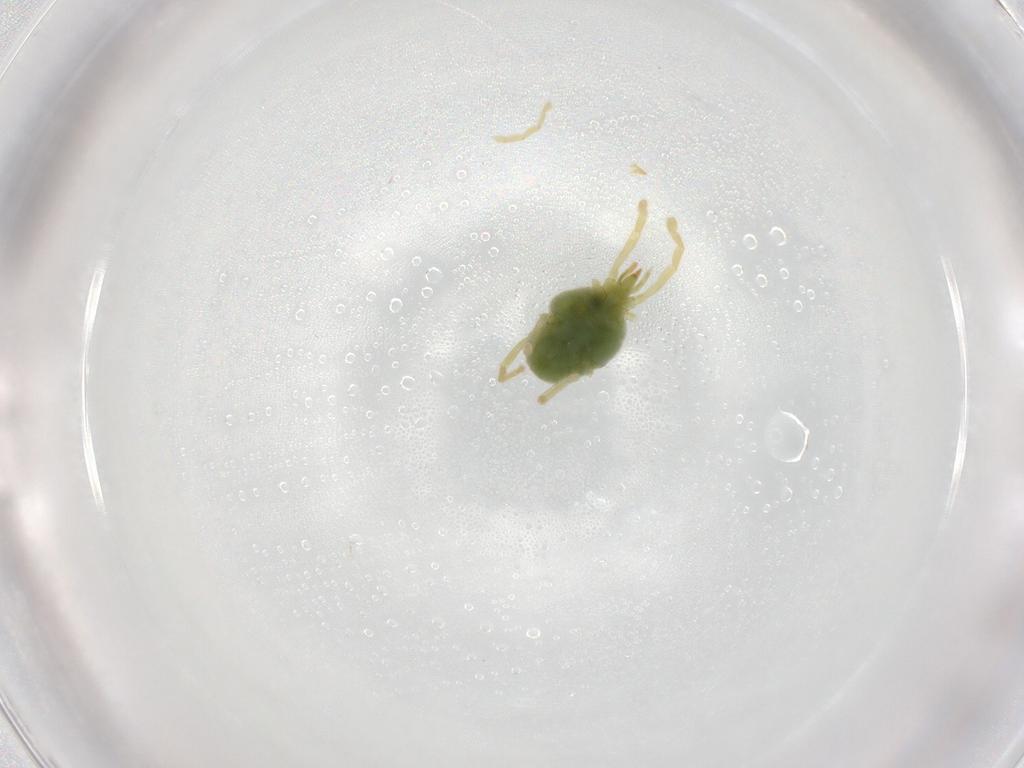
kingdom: Animalia
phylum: Arthropoda
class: Arachnida
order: Trombidiformes
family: Erythraeidae
